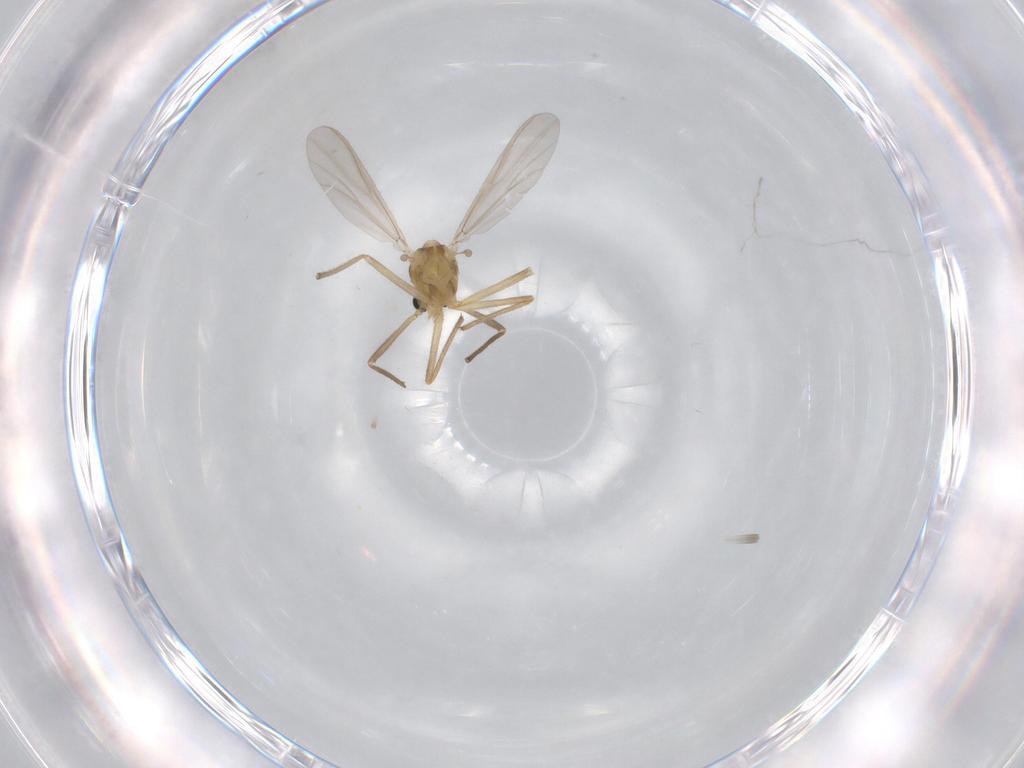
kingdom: Animalia
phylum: Arthropoda
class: Insecta
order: Diptera
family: Chironomidae
